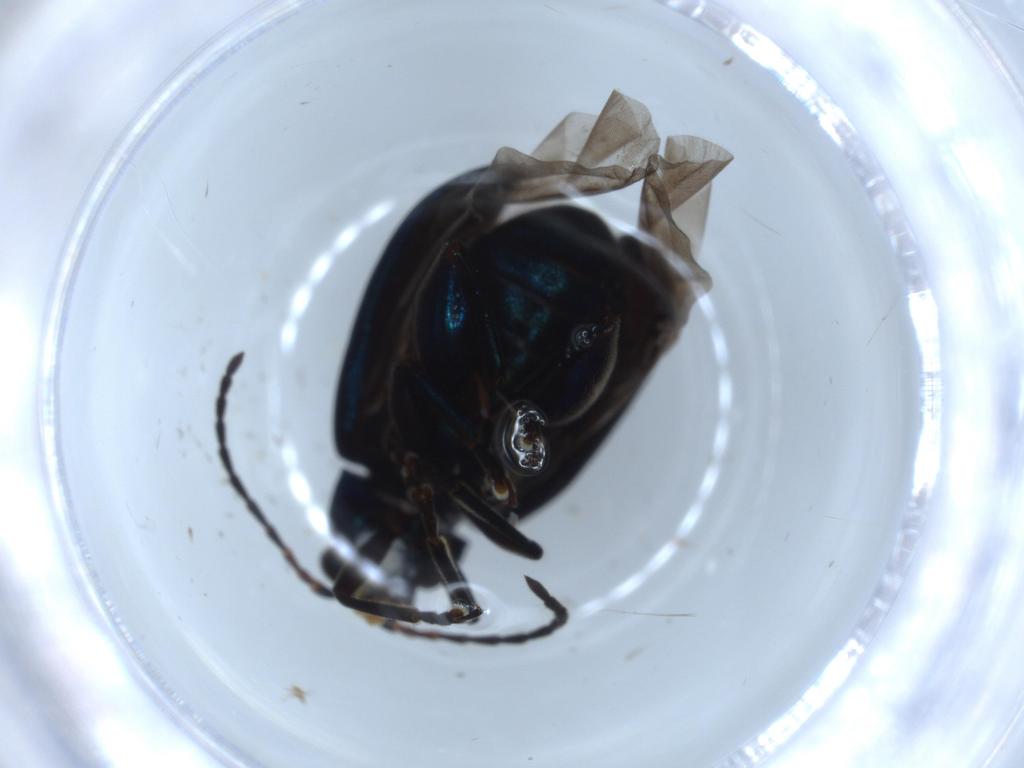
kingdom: Animalia
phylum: Arthropoda
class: Insecta
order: Coleoptera
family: Chrysomelidae
